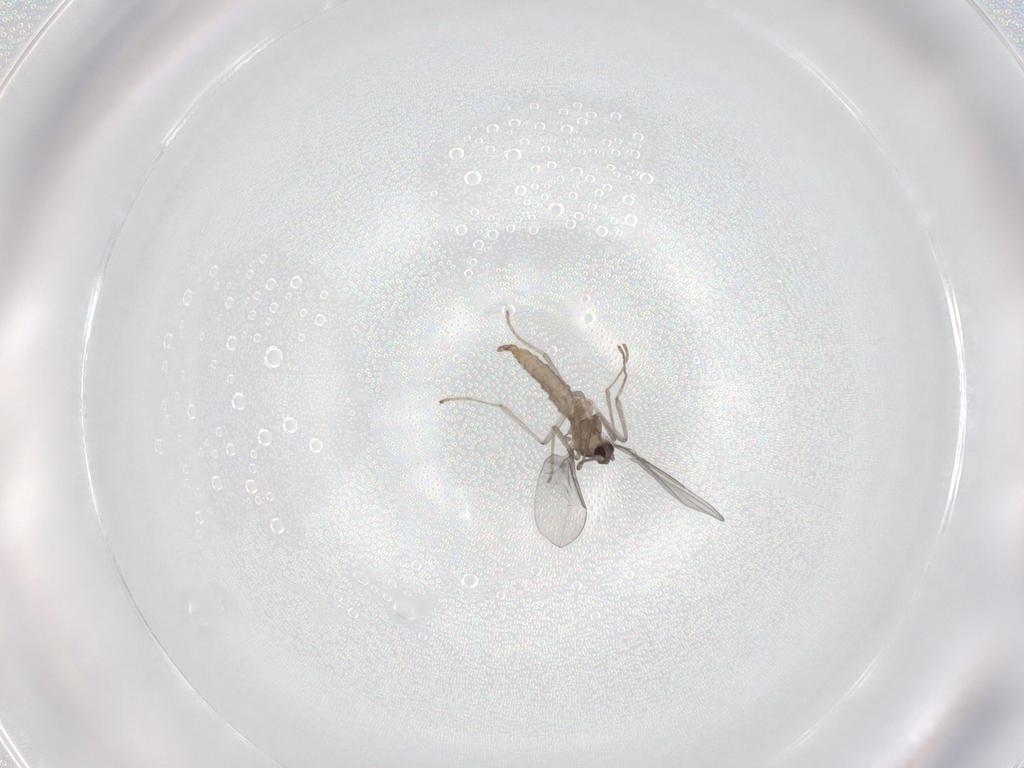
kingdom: Animalia
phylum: Arthropoda
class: Insecta
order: Diptera
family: Cecidomyiidae
